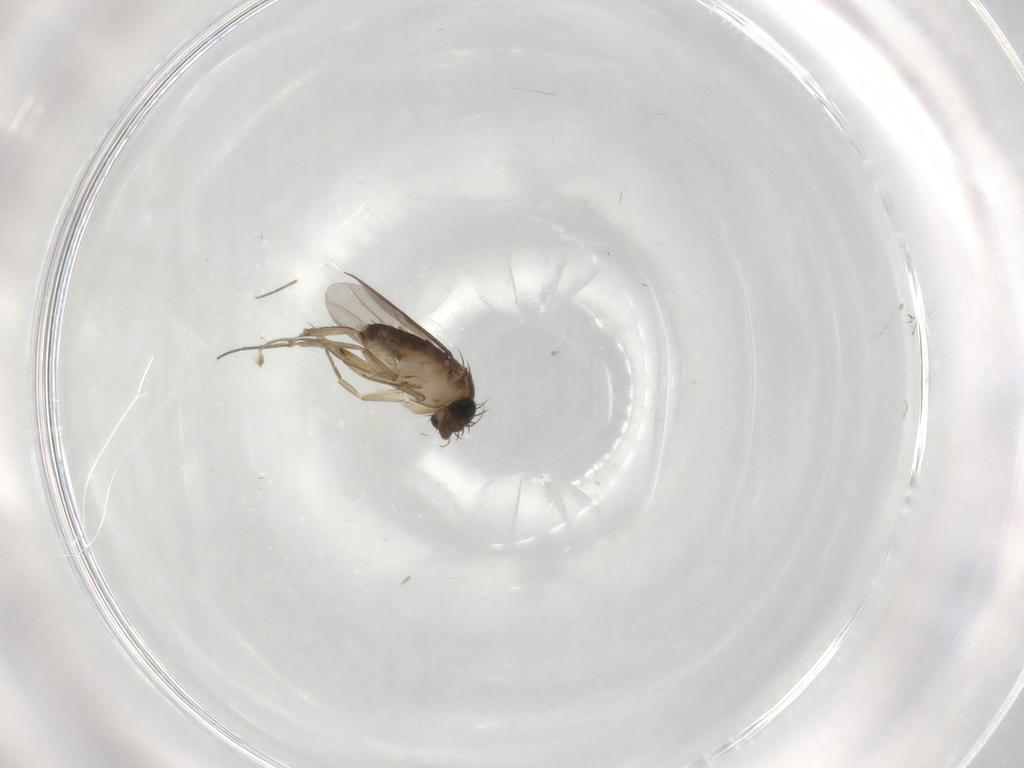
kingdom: Animalia
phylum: Arthropoda
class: Insecta
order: Diptera
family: Phoridae
